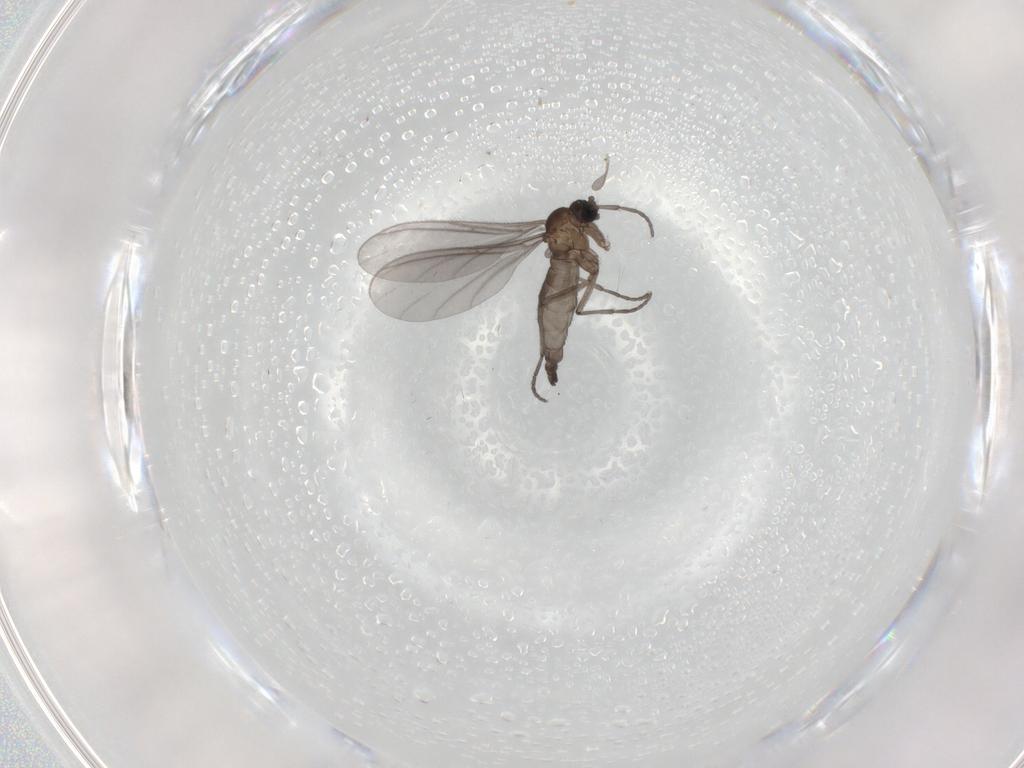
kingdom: Animalia
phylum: Arthropoda
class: Insecta
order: Diptera
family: Sciaridae
